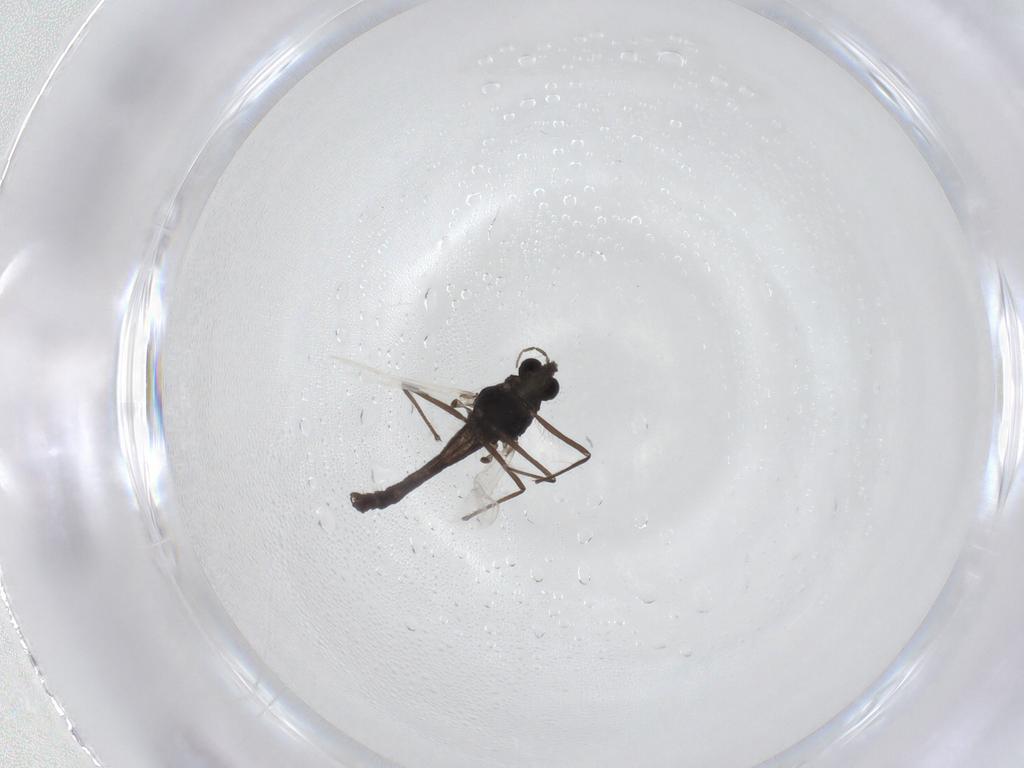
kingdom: Animalia
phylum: Arthropoda
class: Insecta
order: Diptera
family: Chironomidae
